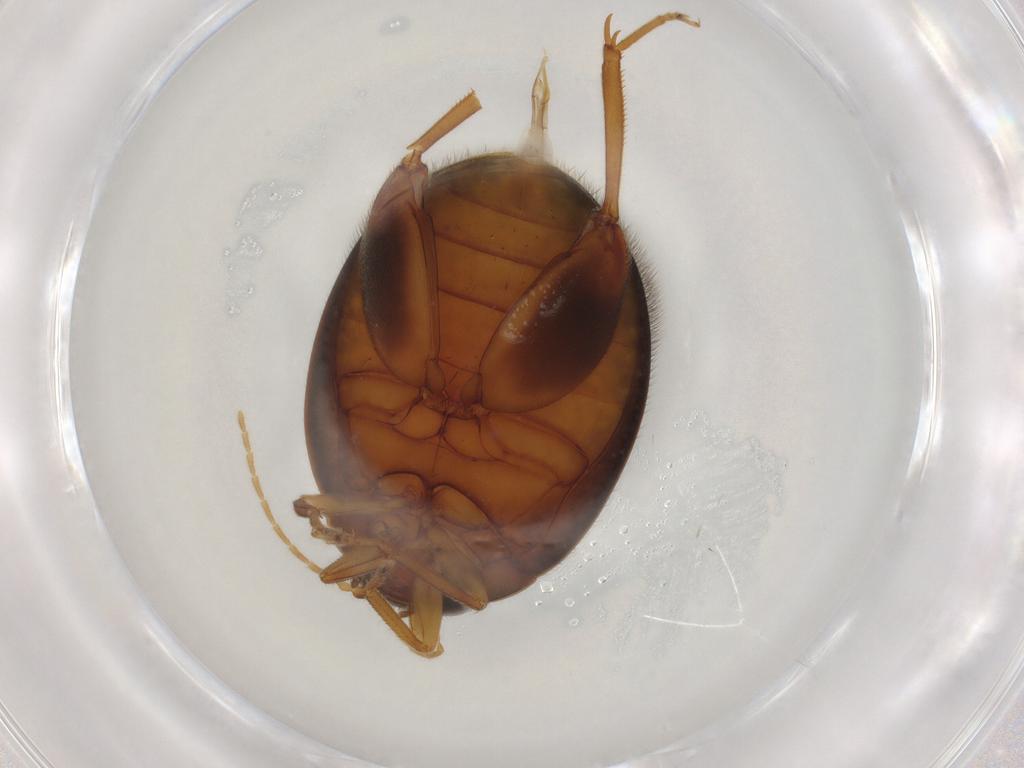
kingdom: Animalia
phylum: Arthropoda
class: Insecta
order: Coleoptera
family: Scirtidae
